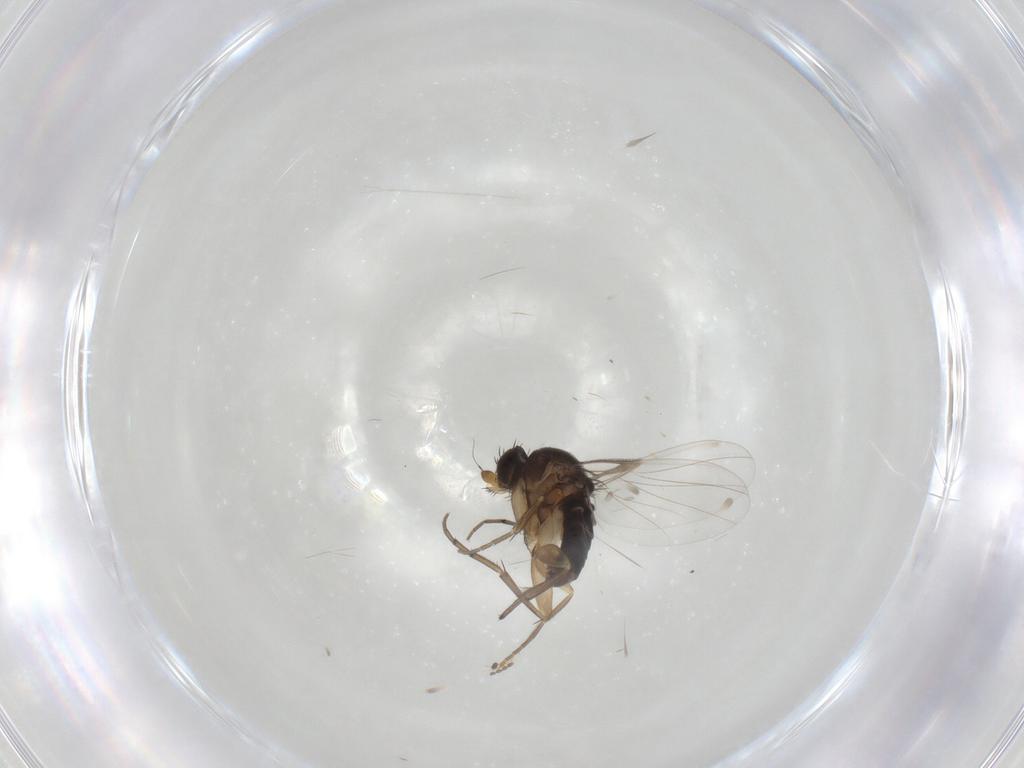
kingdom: Animalia
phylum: Arthropoda
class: Insecta
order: Diptera
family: Phoridae
